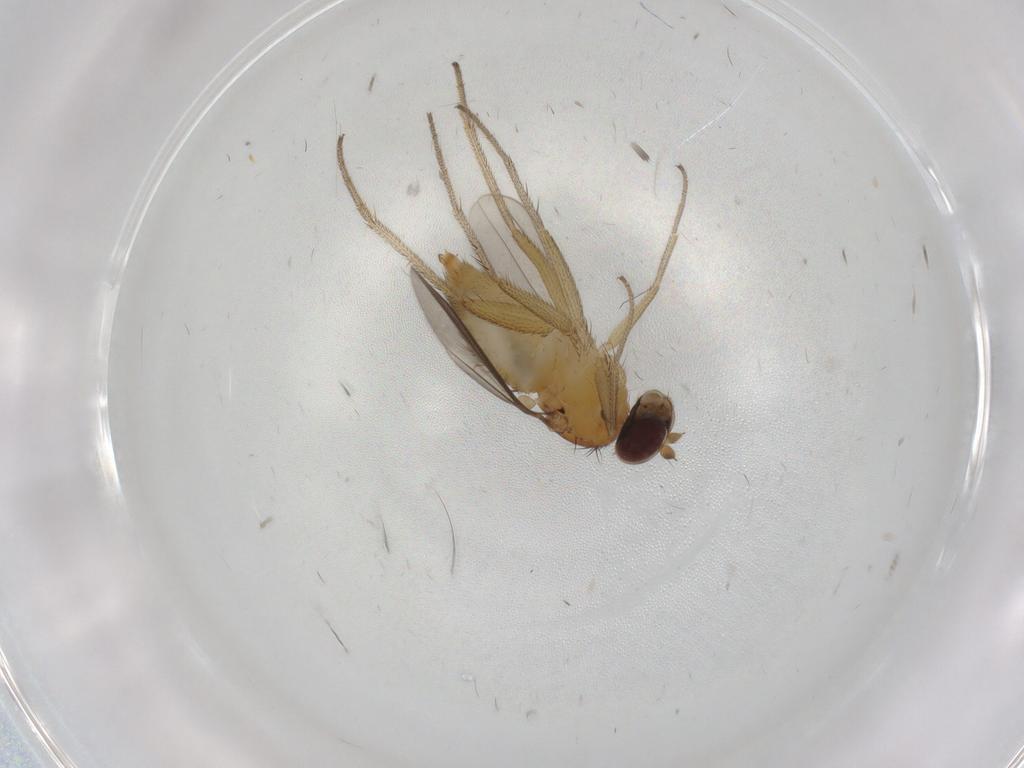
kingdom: Animalia
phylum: Arthropoda
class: Insecta
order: Diptera
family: Dolichopodidae
